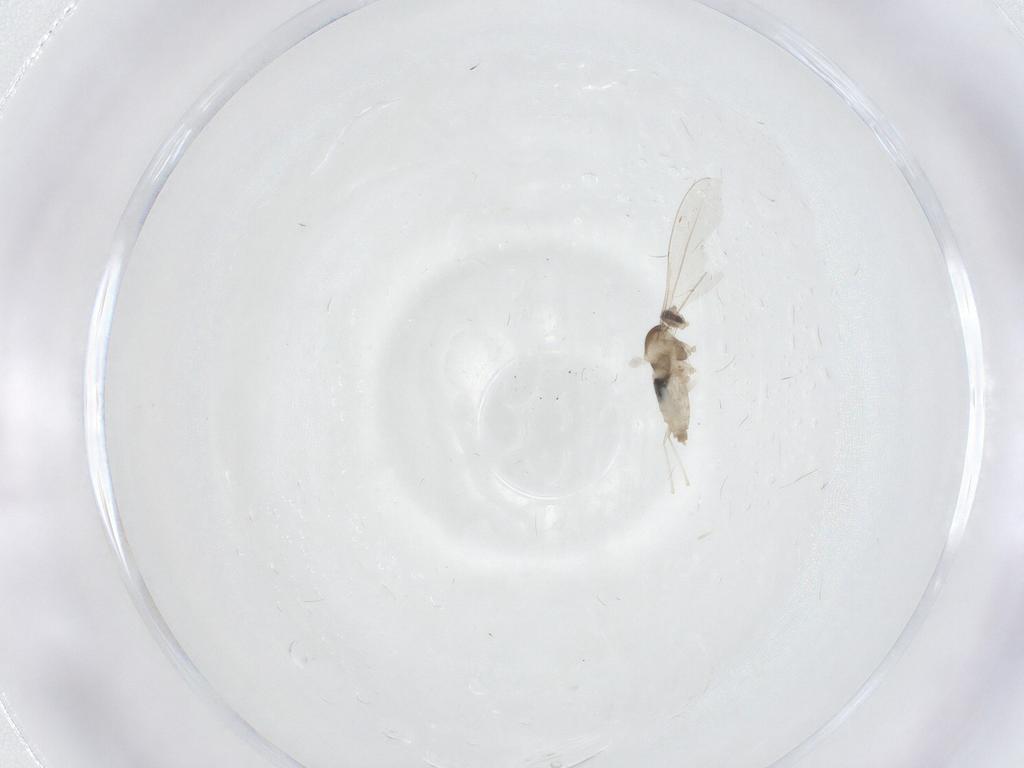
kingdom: Animalia
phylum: Arthropoda
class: Insecta
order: Diptera
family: Cecidomyiidae
